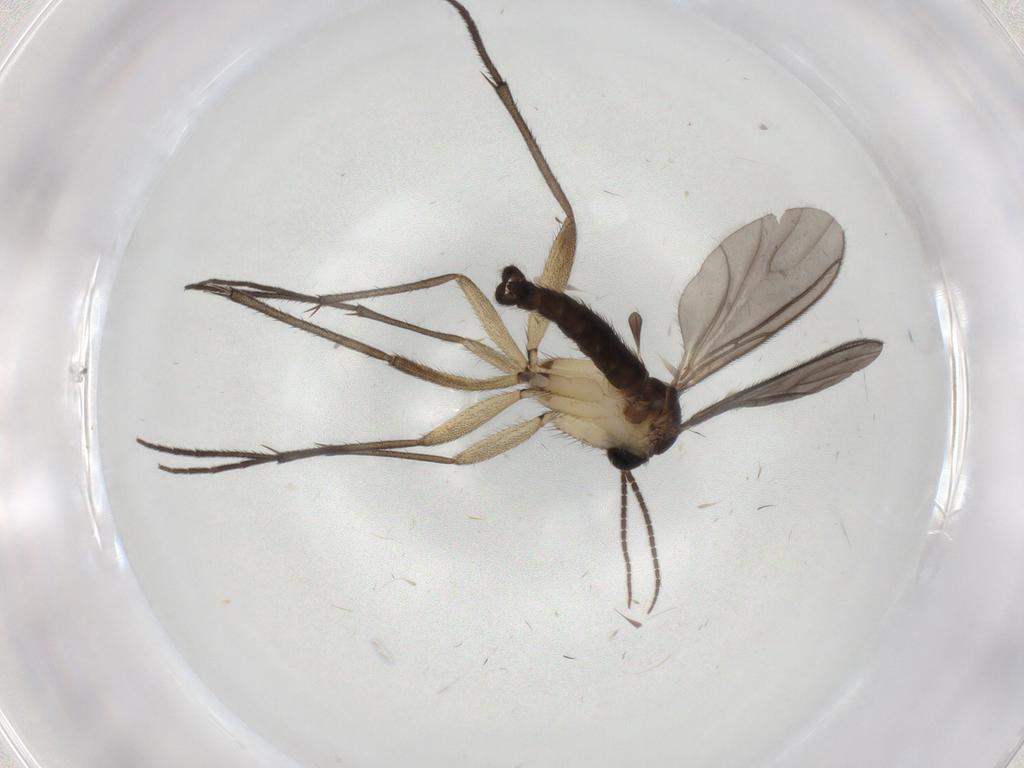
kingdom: Animalia
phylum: Arthropoda
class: Insecta
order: Diptera
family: Sciaridae
